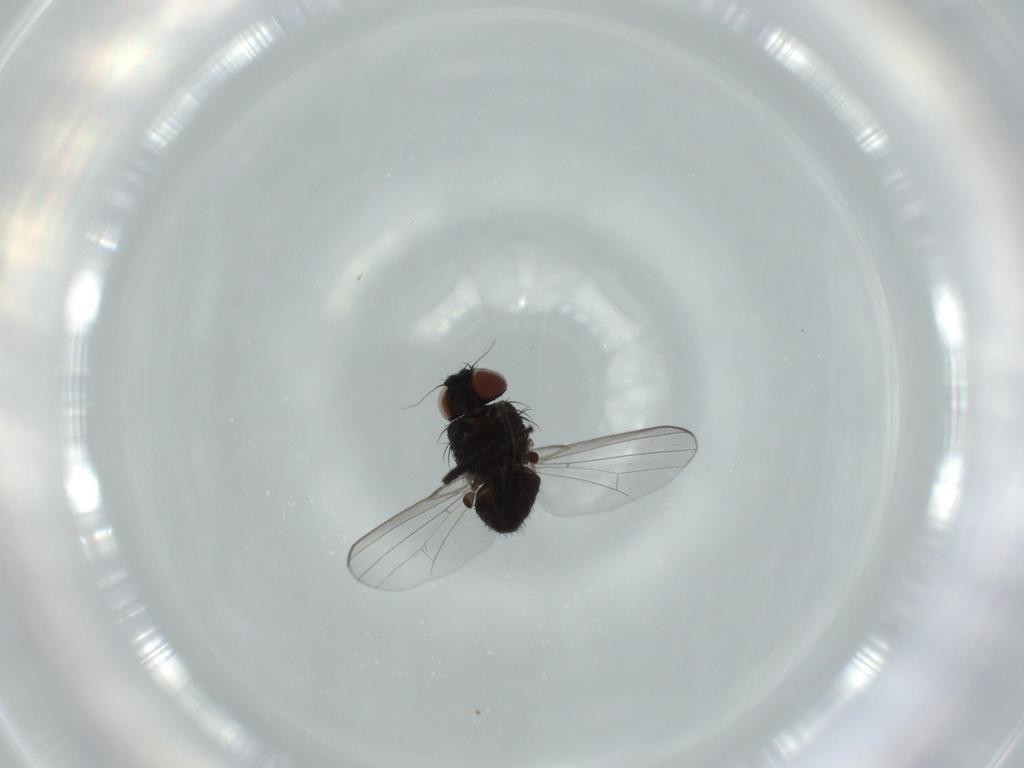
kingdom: Animalia
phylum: Arthropoda
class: Insecta
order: Diptera
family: Milichiidae
